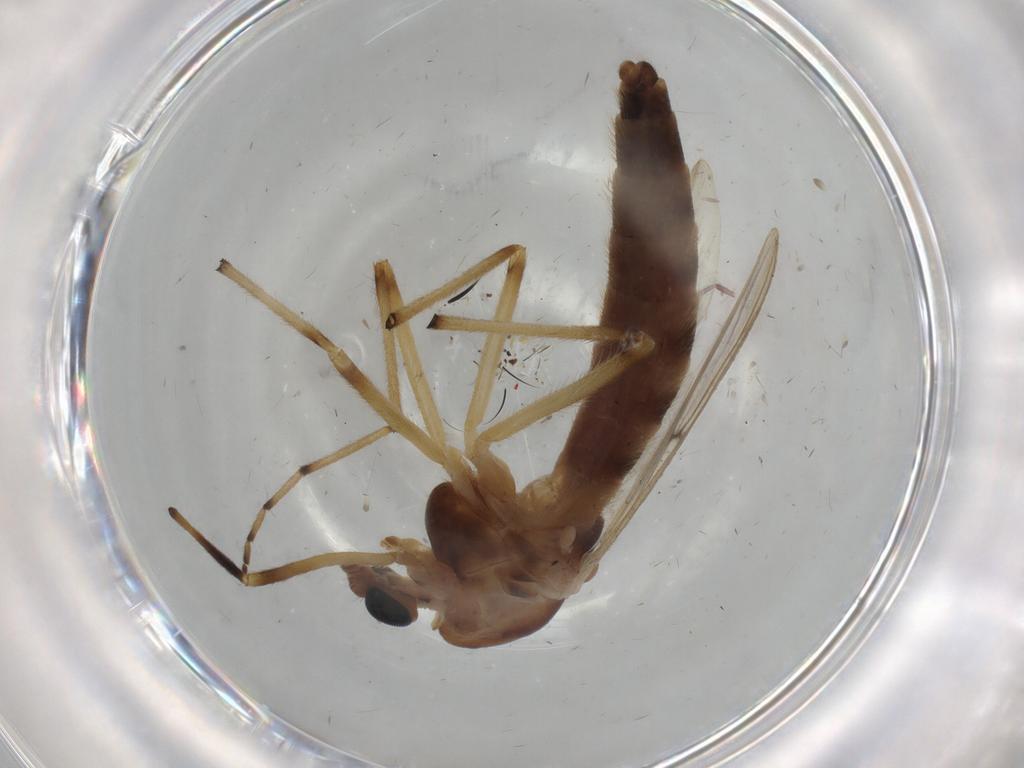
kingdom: Animalia
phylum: Arthropoda
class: Insecta
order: Diptera
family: Chironomidae
